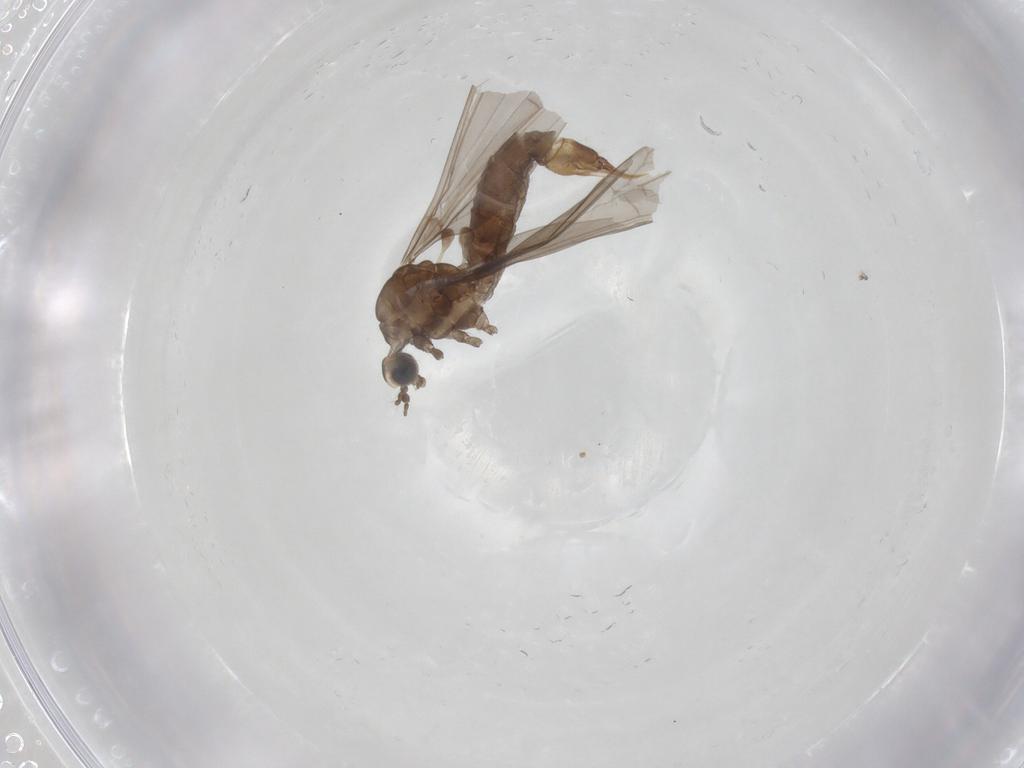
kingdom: Animalia
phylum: Arthropoda
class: Insecta
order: Diptera
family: Limoniidae
